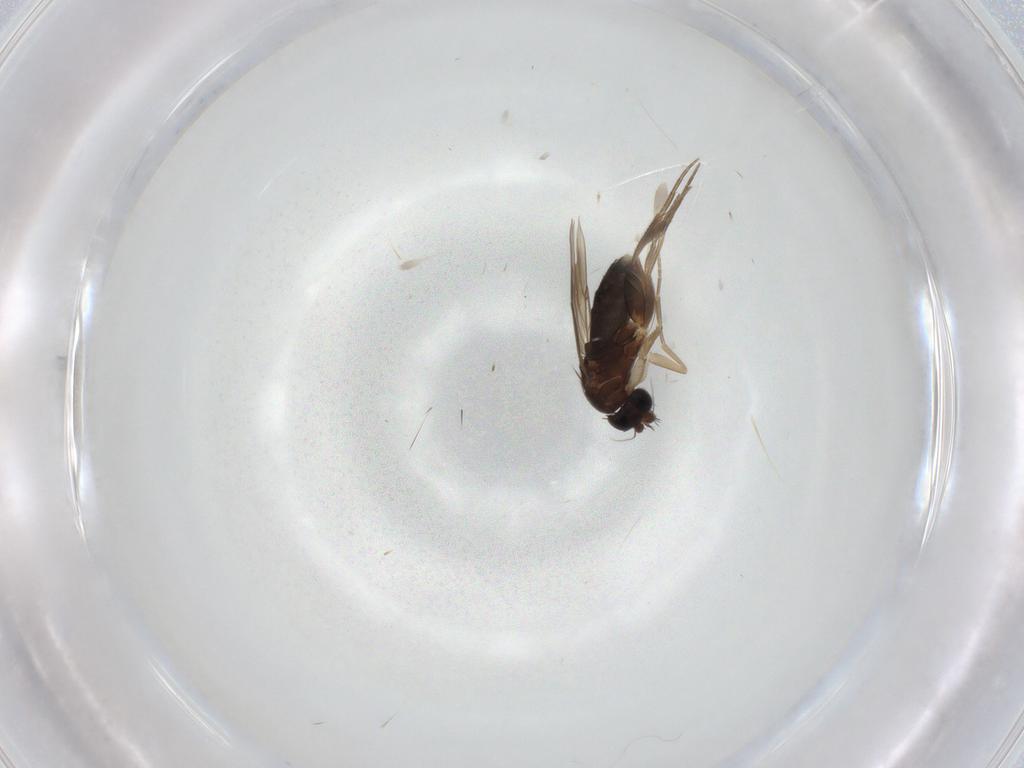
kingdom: Animalia
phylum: Arthropoda
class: Insecta
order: Diptera
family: Phoridae
